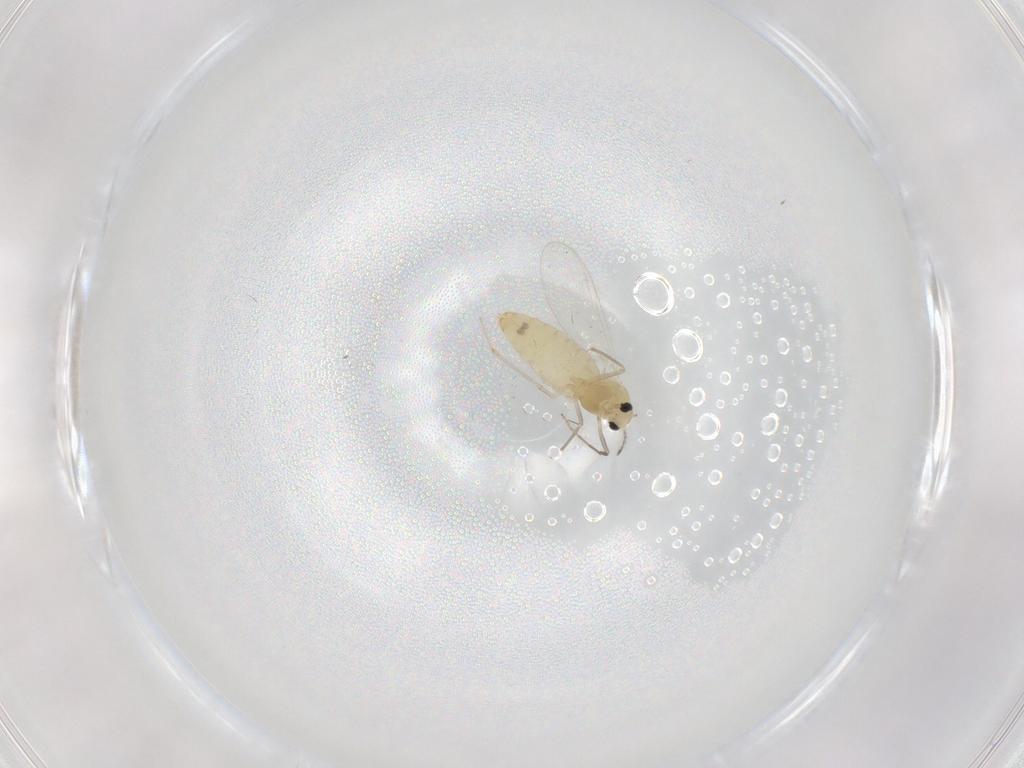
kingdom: Animalia
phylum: Arthropoda
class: Insecta
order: Diptera
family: Chironomidae
